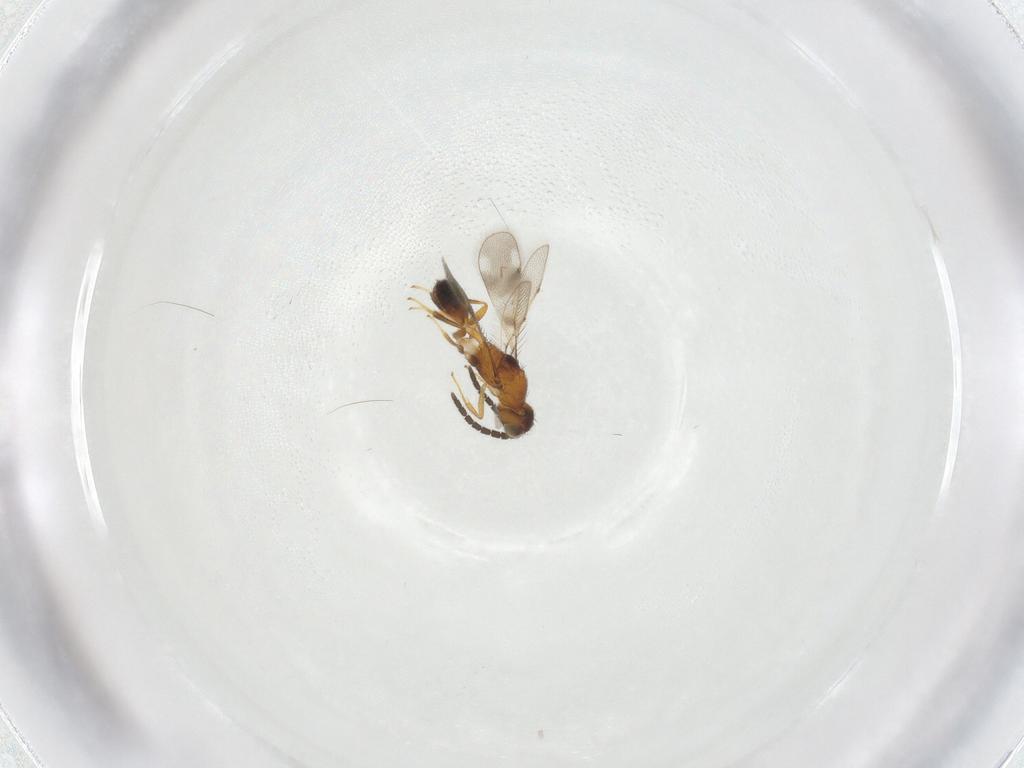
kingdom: Animalia
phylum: Arthropoda
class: Insecta
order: Hymenoptera
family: Pteromalidae
